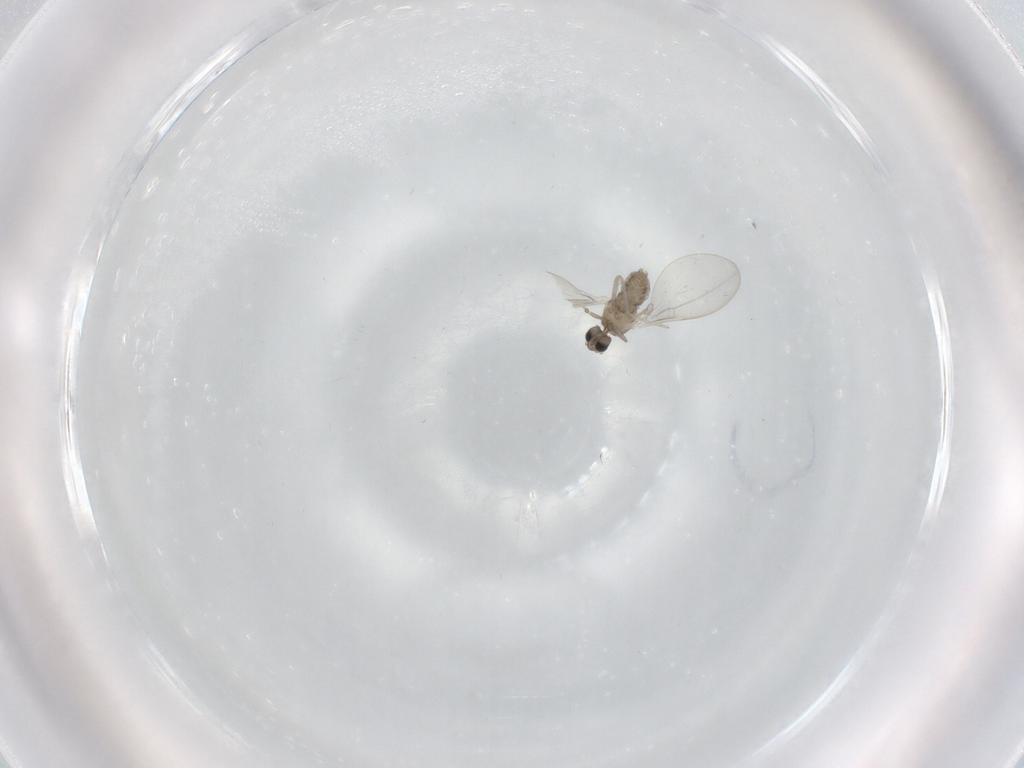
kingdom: Animalia
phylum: Arthropoda
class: Insecta
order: Diptera
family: Cecidomyiidae
